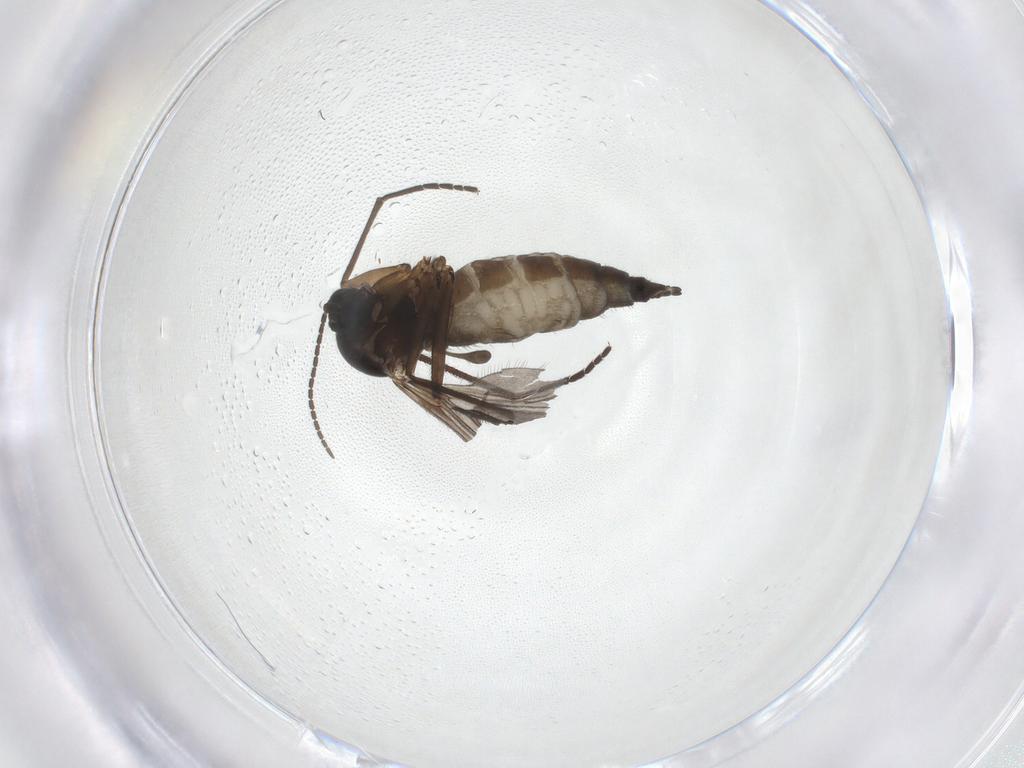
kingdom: Animalia
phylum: Arthropoda
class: Insecta
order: Diptera
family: Sciaridae
